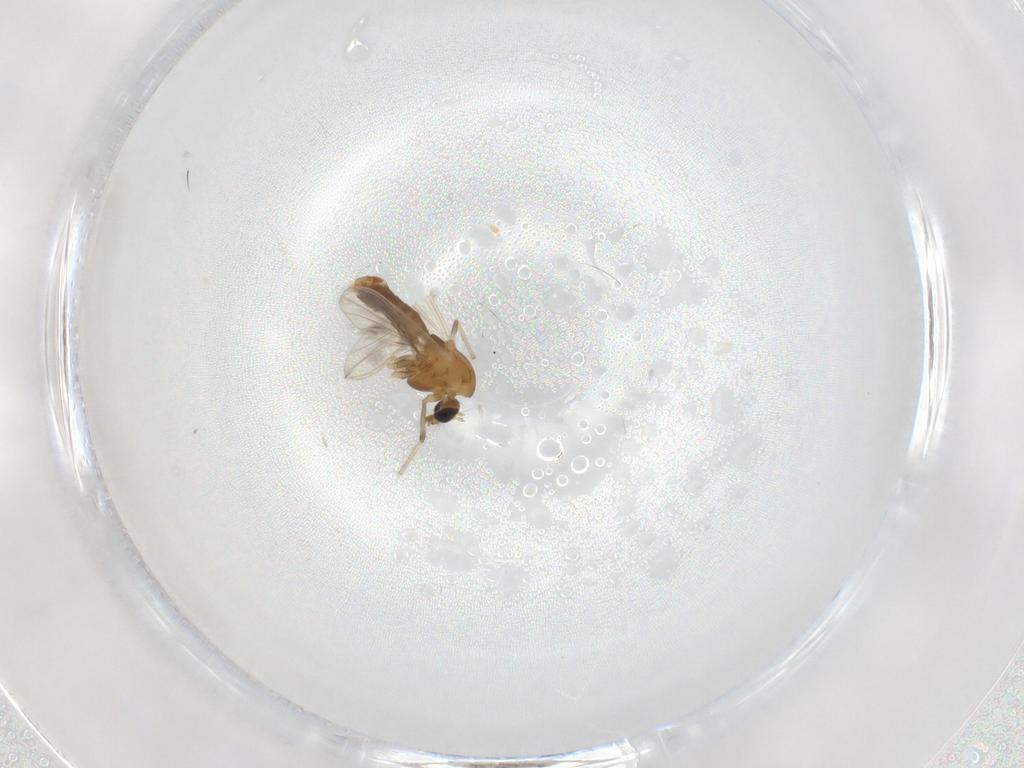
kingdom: Animalia
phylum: Arthropoda
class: Insecta
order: Diptera
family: Chironomidae
